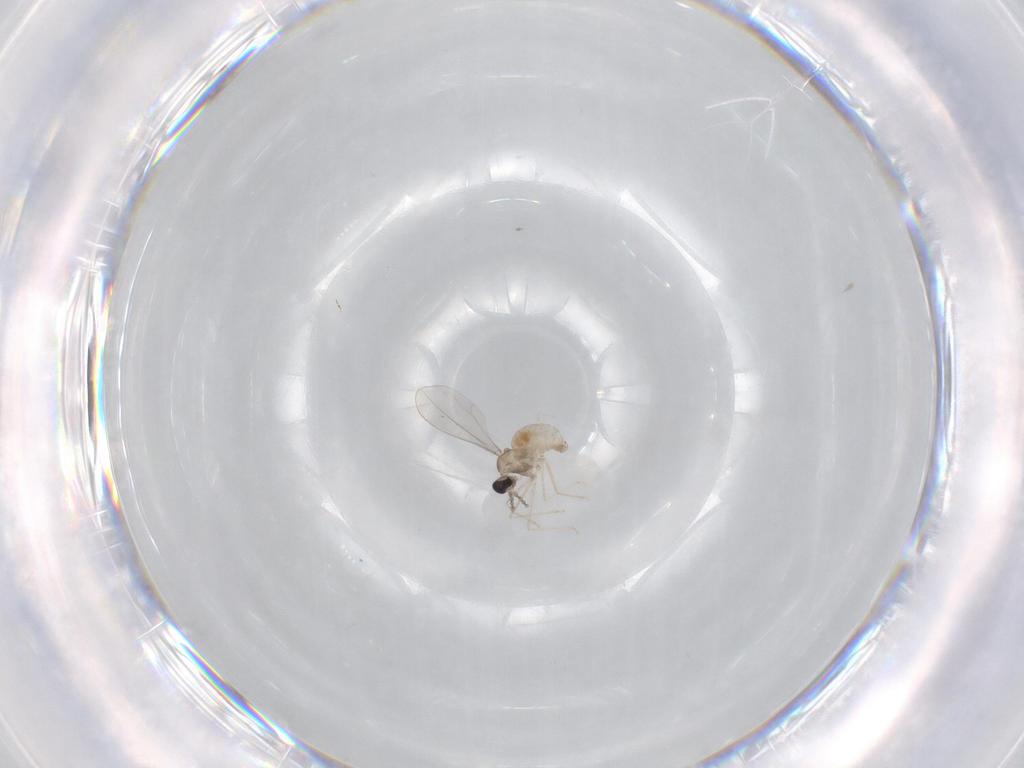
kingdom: Animalia
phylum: Arthropoda
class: Insecta
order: Diptera
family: Chironomidae
